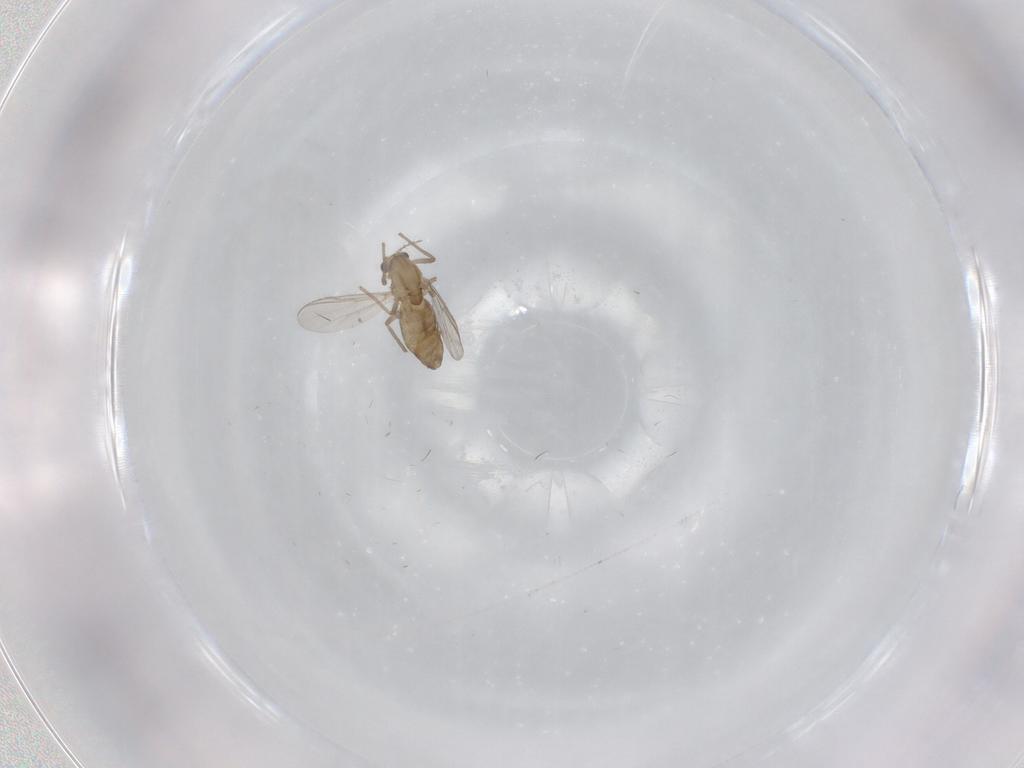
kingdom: Animalia
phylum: Arthropoda
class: Insecta
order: Diptera
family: Chironomidae
